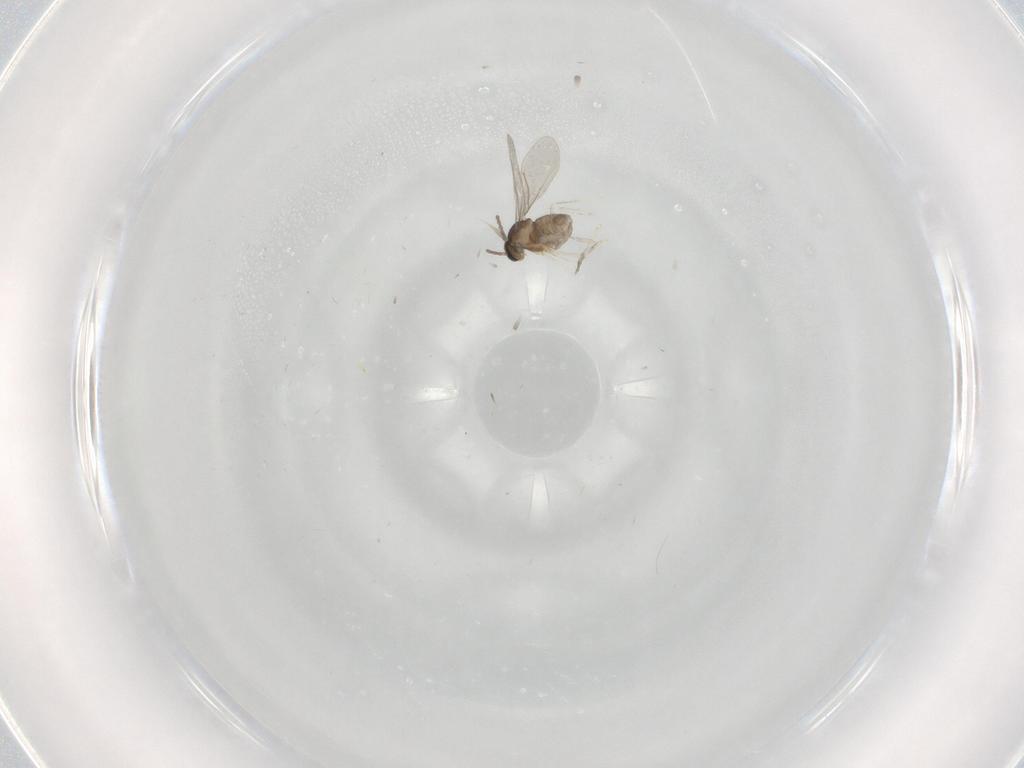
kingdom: Animalia
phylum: Arthropoda
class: Insecta
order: Diptera
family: Cecidomyiidae
